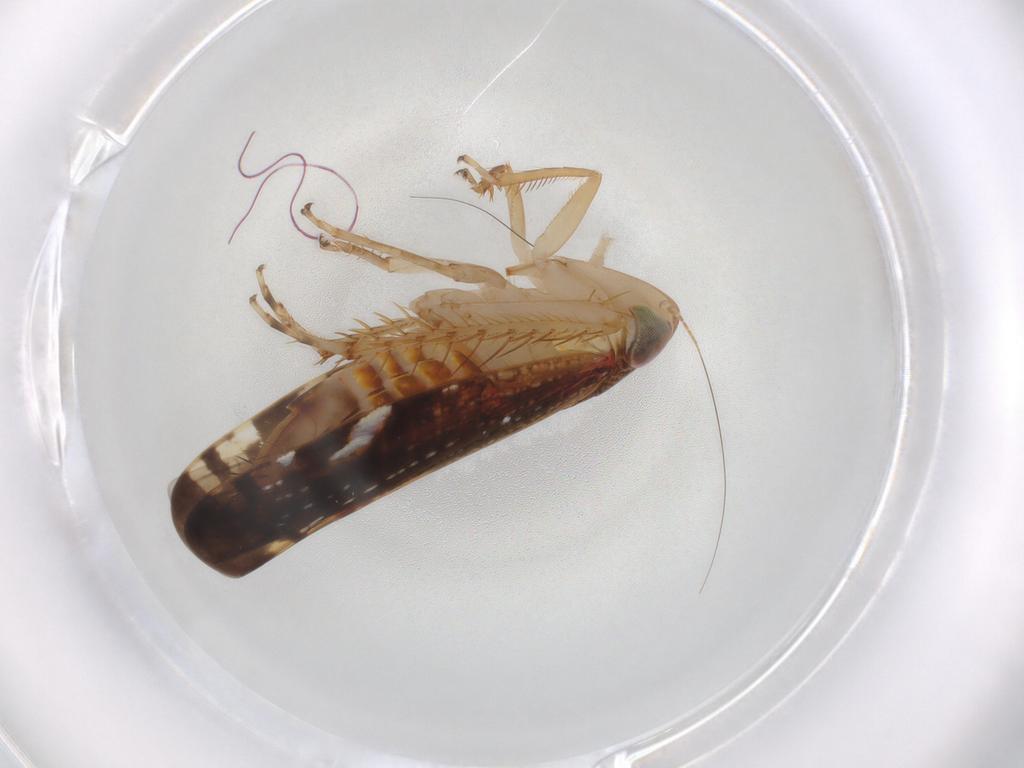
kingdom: Animalia
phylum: Arthropoda
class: Insecta
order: Hemiptera
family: Cicadellidae
